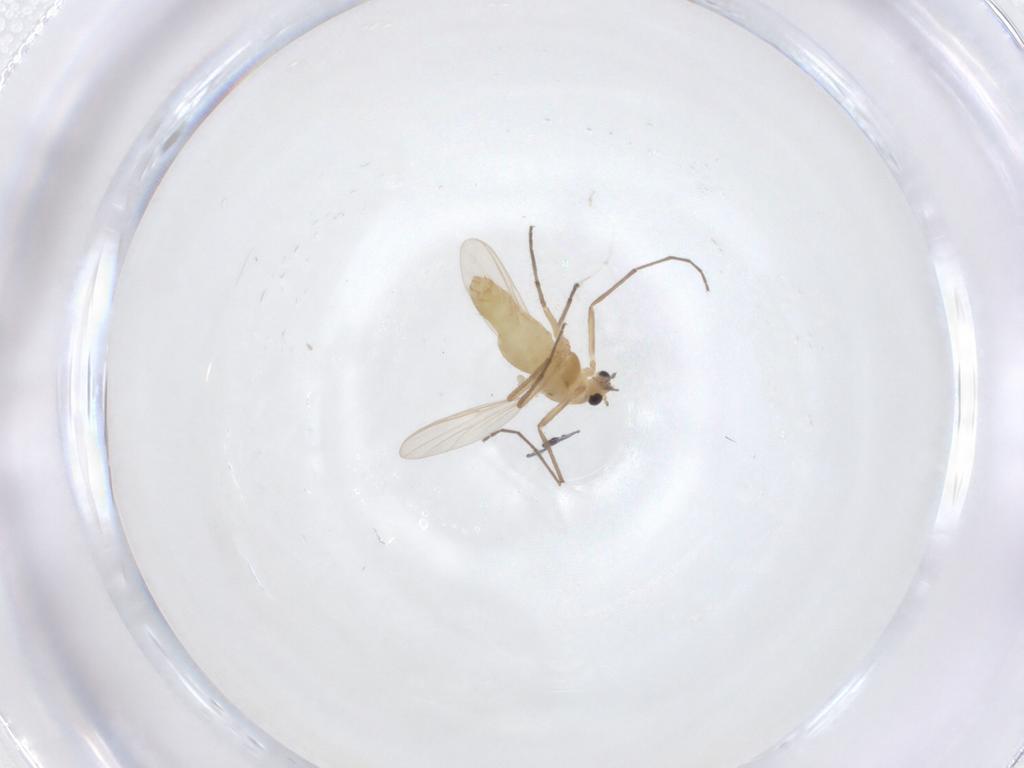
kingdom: Animalia
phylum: Arthropoda
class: Insecta
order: Diptera
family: Chironomidae
